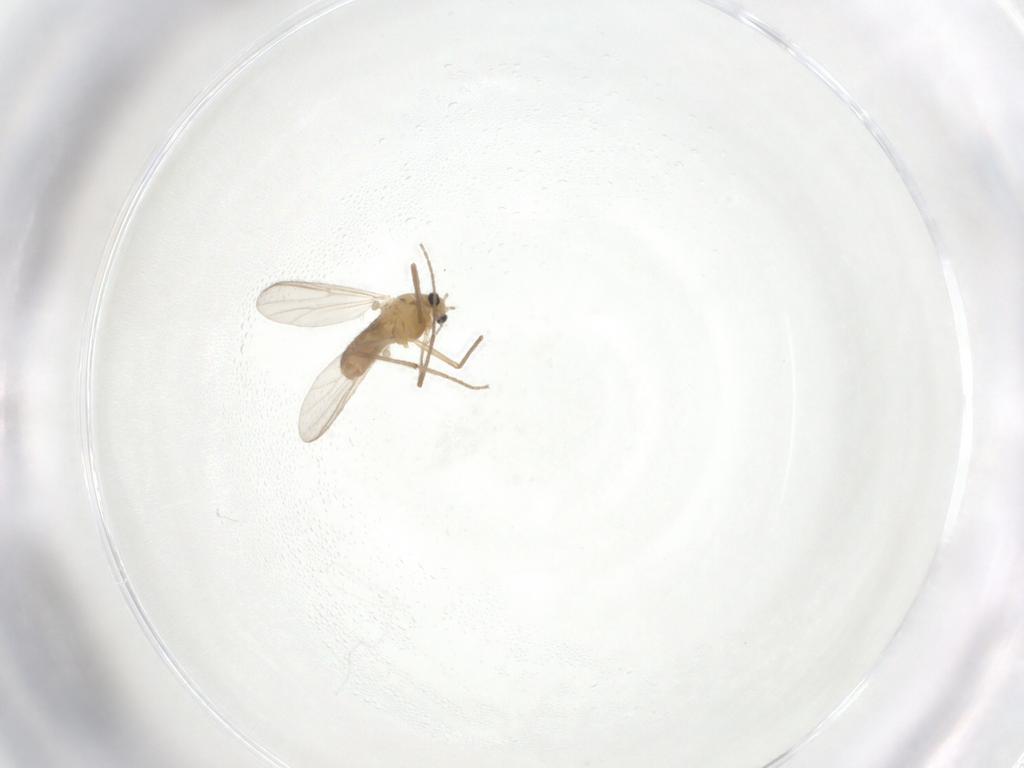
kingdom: Animalia
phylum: Arthropoda
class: Insecta
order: Diptera
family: Chironomidae
